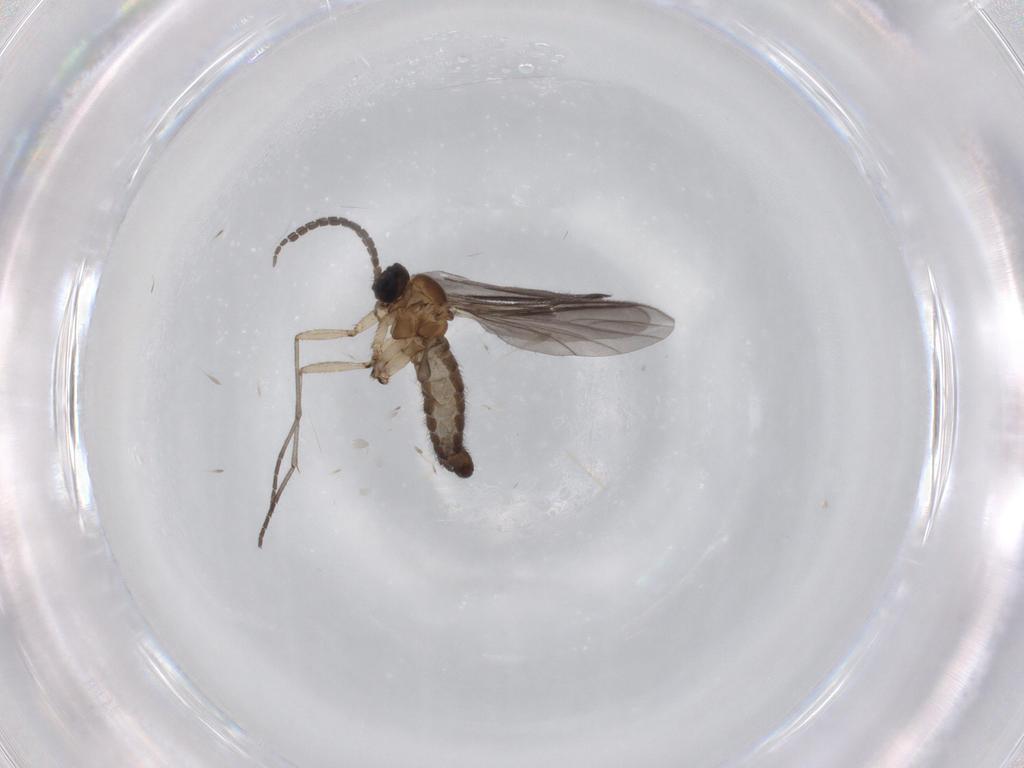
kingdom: Animalia
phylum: Arthropoda
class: Insecta
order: Diptera
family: Sciaridae
